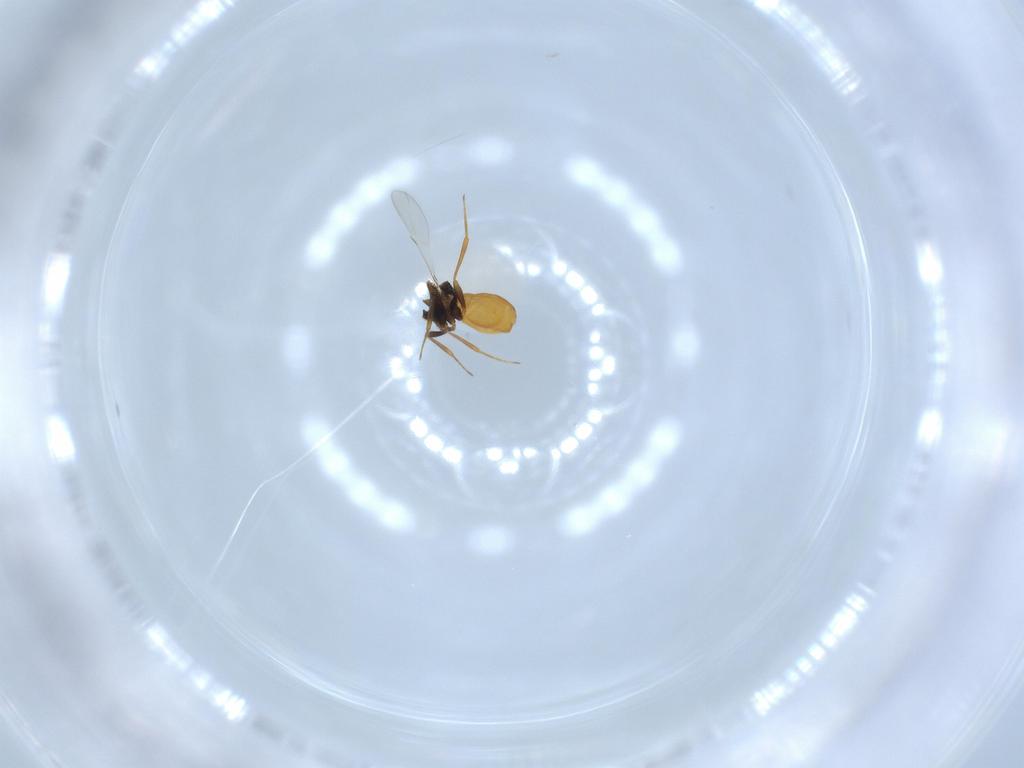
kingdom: Animalia
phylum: Arthropoda
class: Insecta
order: Hymenoptera
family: Scelionidae
